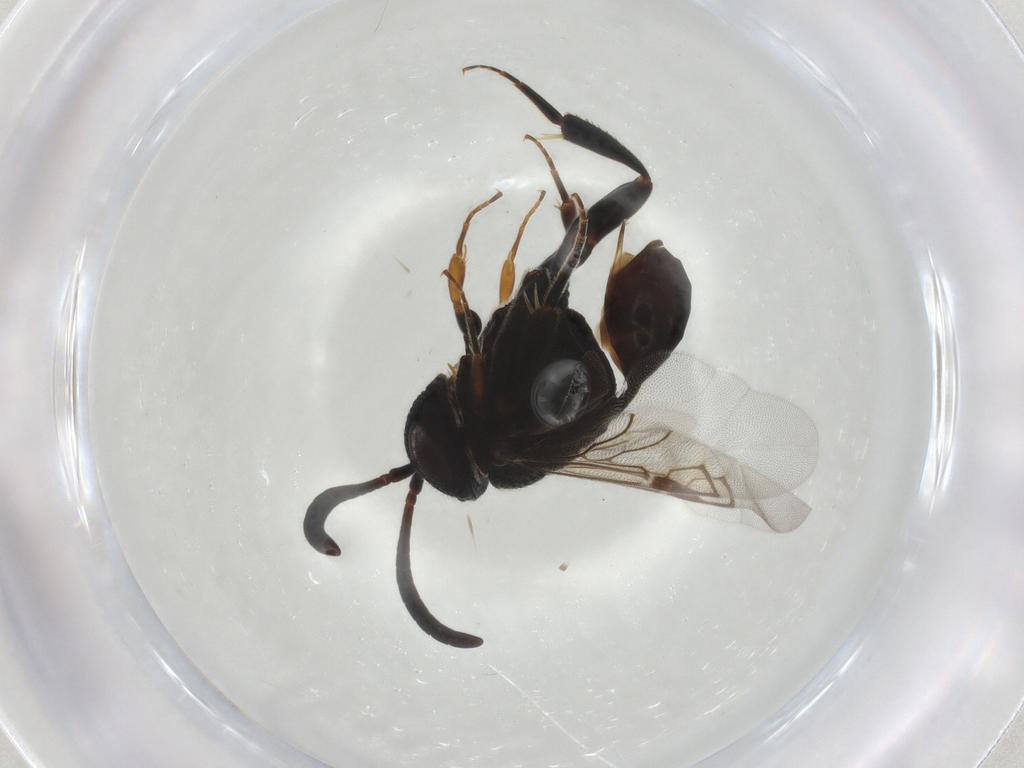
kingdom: Animalia
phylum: Arthropoda
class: Insecta
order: Hymenoptera
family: Evaniidae
